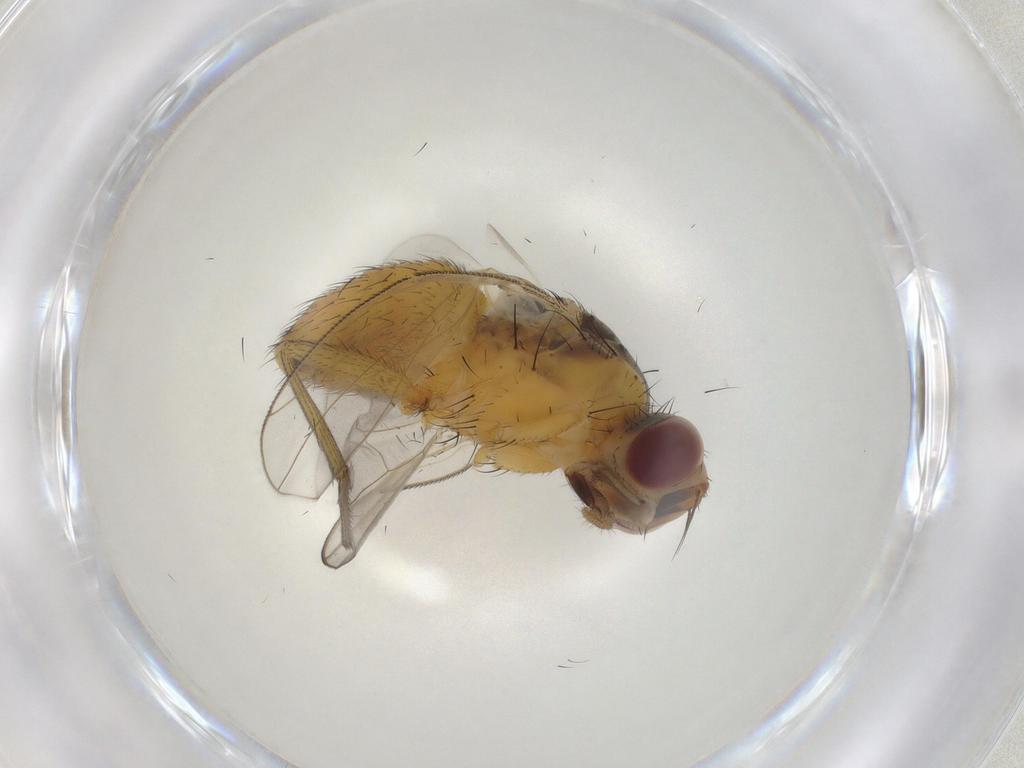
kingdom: Animalia
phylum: Arthropoda
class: Insecta
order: Diptera
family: Muscidae
